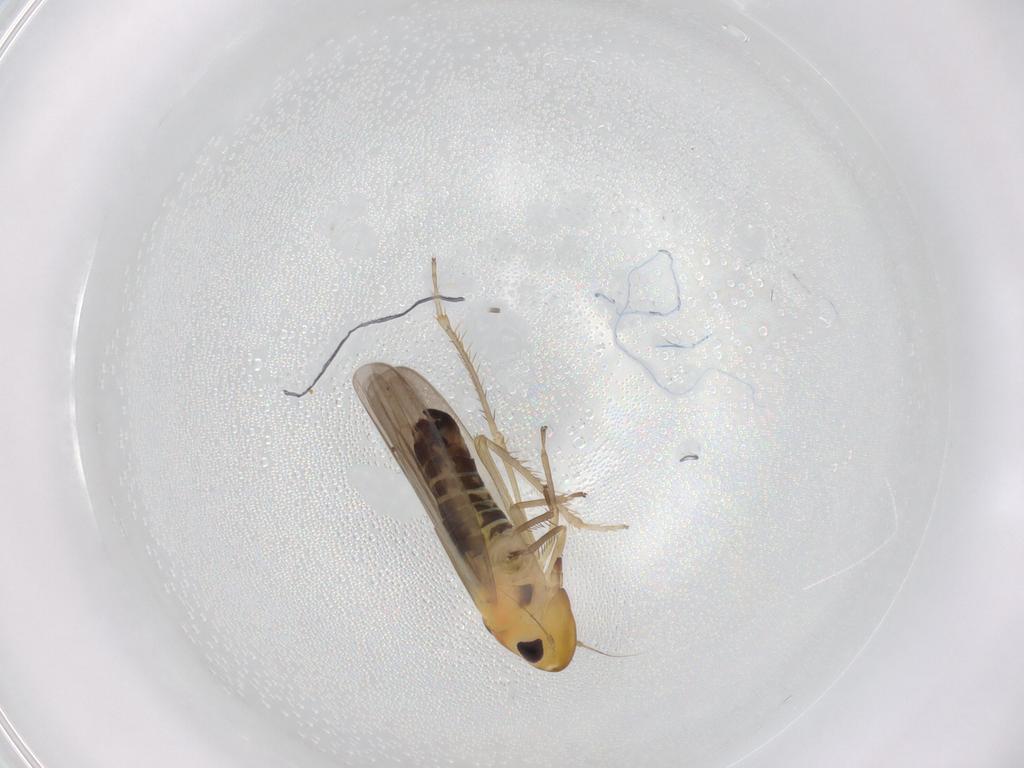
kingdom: Animalia
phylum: Arthropoda
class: Insecta
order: Hemiptera
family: Cicadellidae
